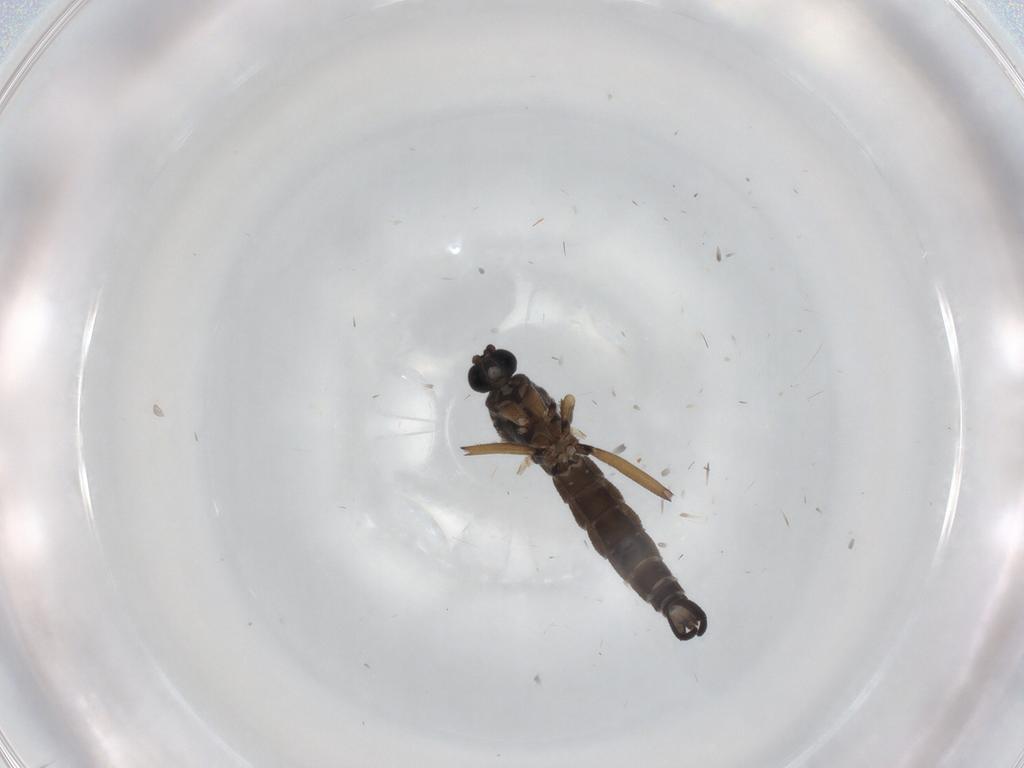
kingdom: Animalia
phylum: Arthropoda
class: Insecta
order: Diptera
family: Sciaridae
